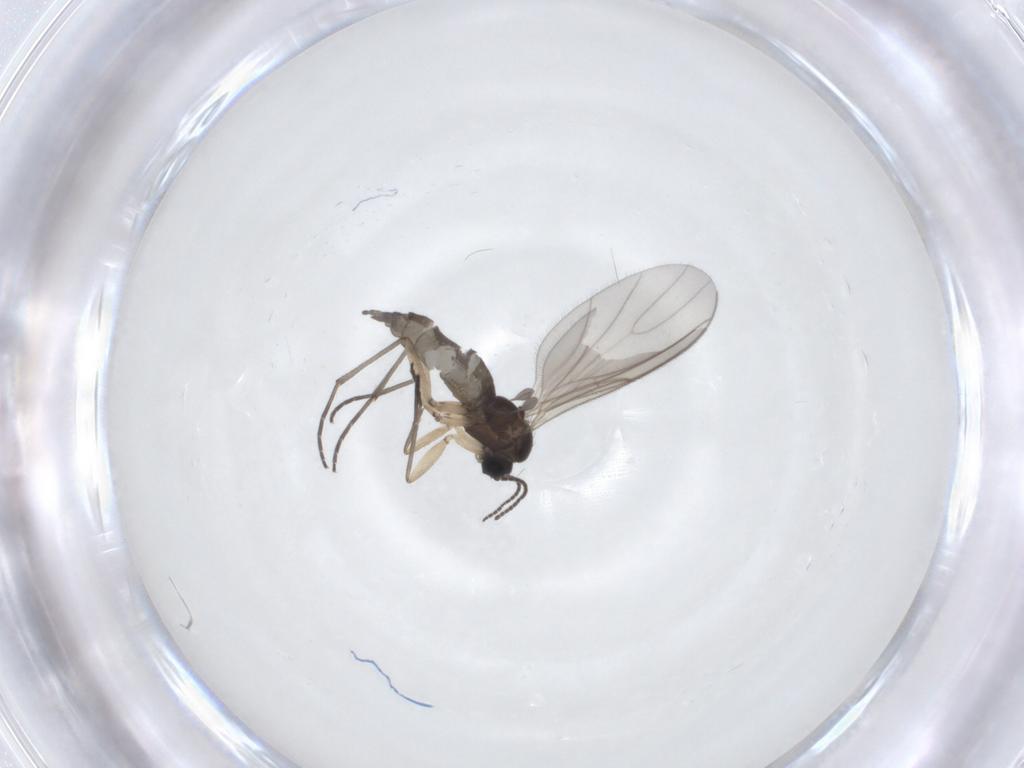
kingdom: Animalia
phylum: Arthropoda
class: Insecta
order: Diptera
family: Sciaridae
